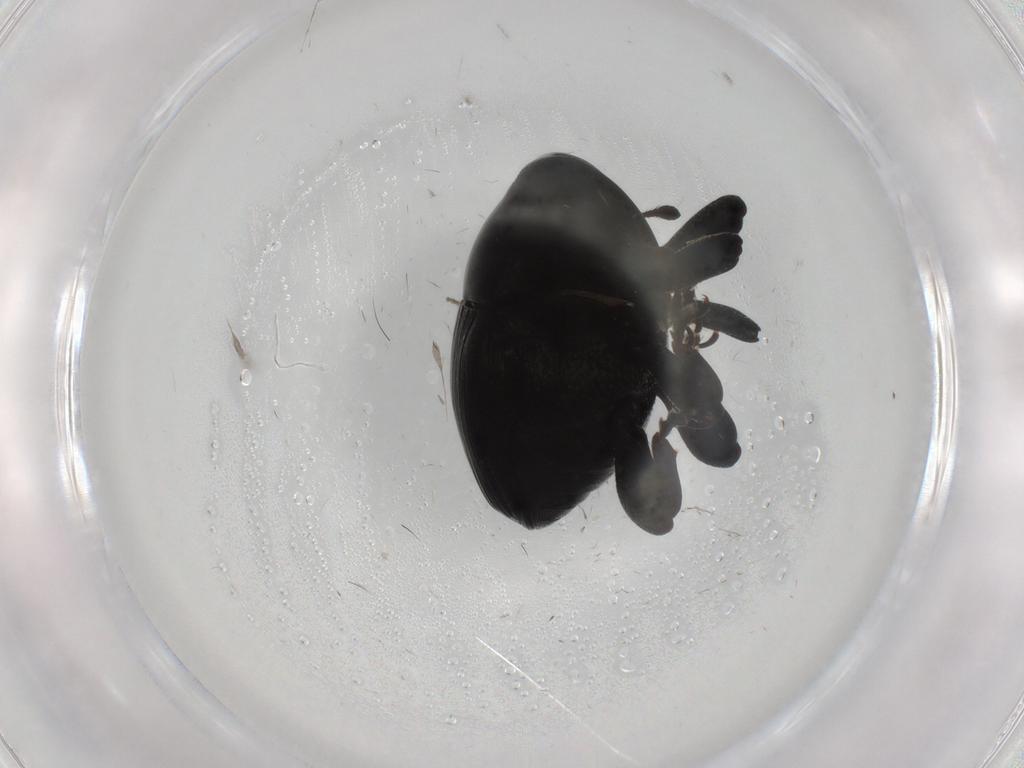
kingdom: Animalia
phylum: Arthropoda
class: Insecta
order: Coleoptera
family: Curculionidae
